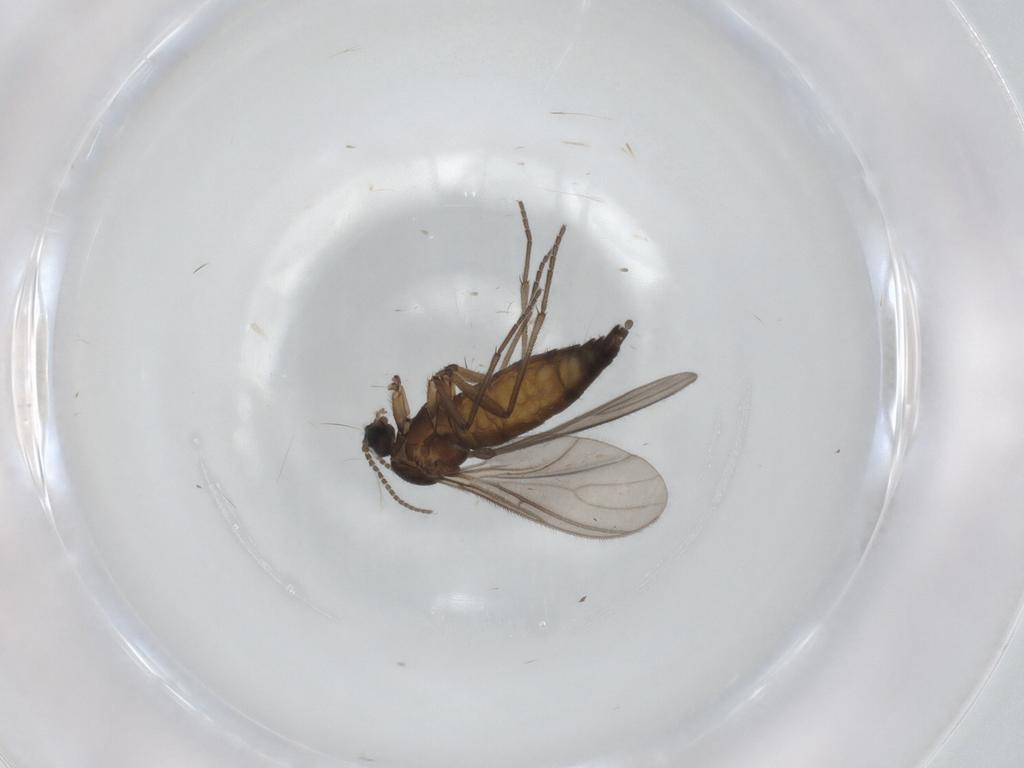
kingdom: Animalia
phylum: Arthropoda
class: Insecta
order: Diptera
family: Sciaridae
